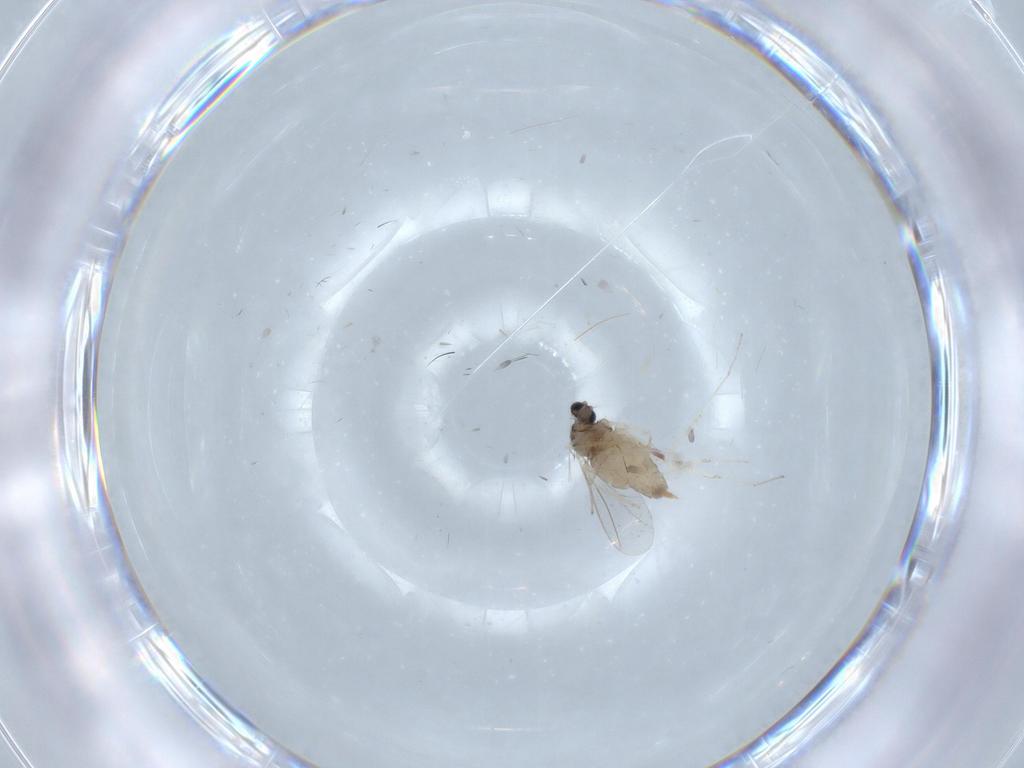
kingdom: Animalia
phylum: Arthropoda
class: Insecta
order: Diptera
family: Cecidomyiidae
